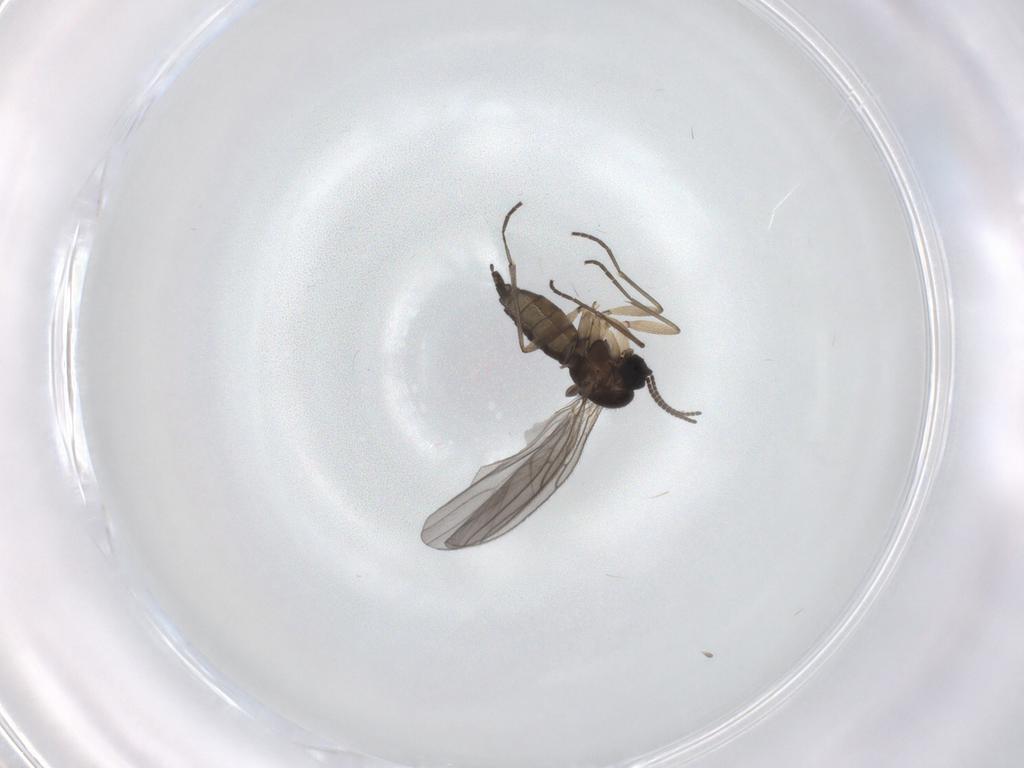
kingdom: Animalia
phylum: Arthropoda
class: Insecta
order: Diptera
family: Sciaridae
